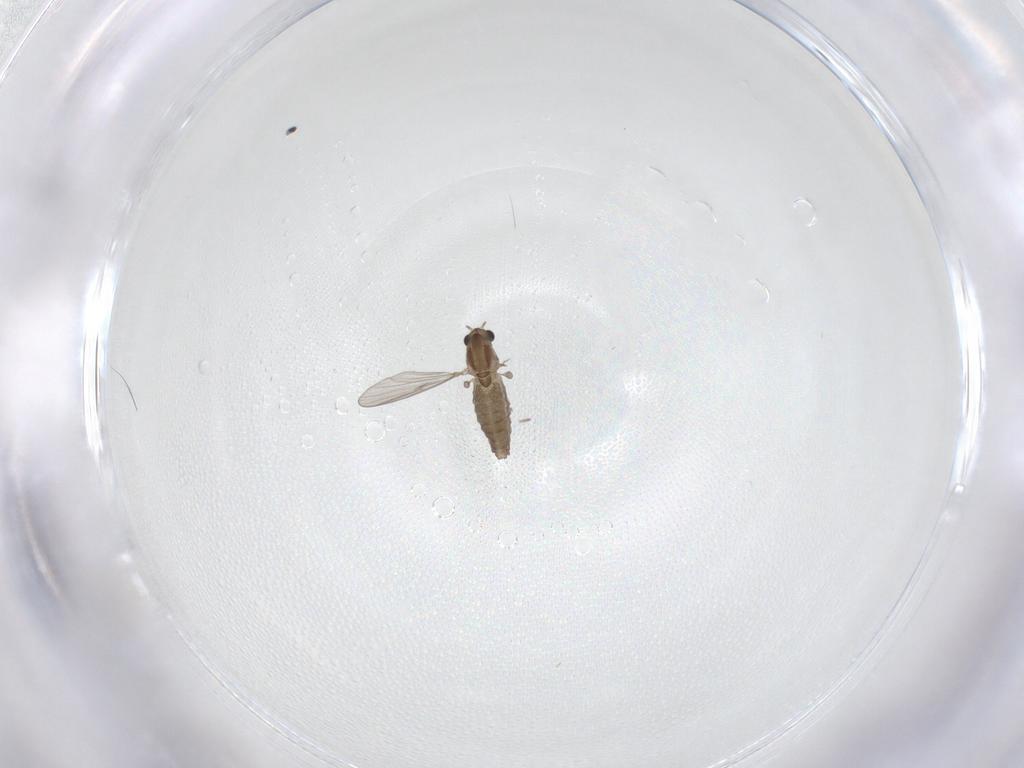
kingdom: Animalia
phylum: Arthropoda
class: Insecta
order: Diptera
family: Chironomidae
